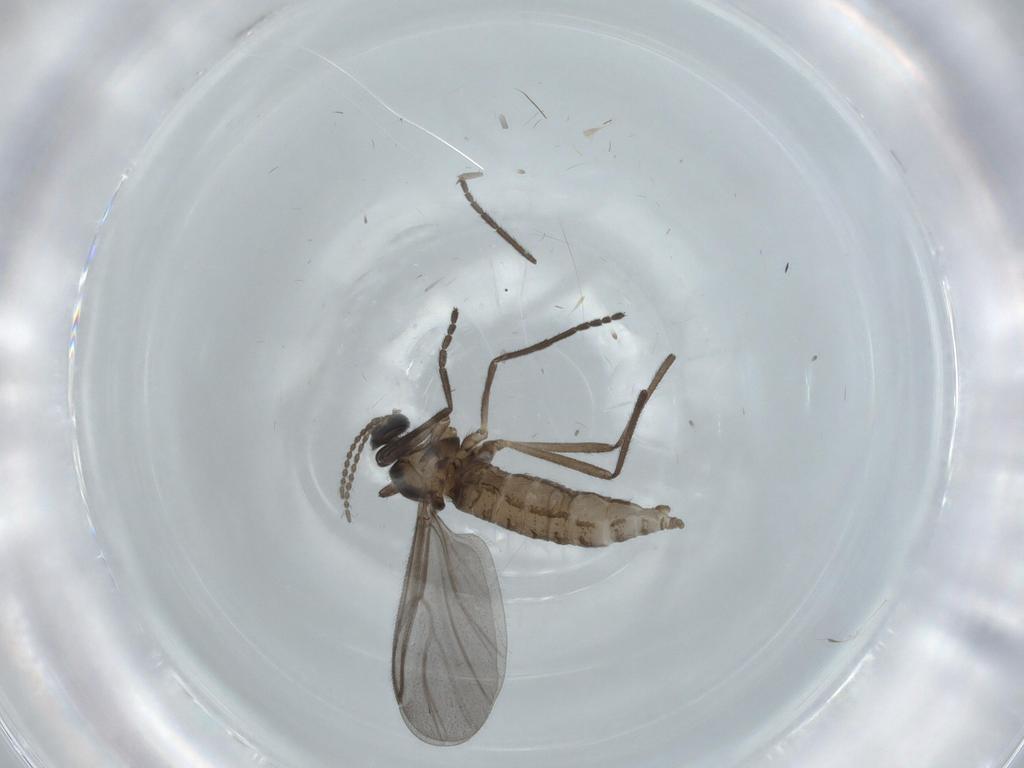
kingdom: Animalia
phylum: Arthropoda
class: Insecta
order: Diptera
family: Cecidomyiidae
